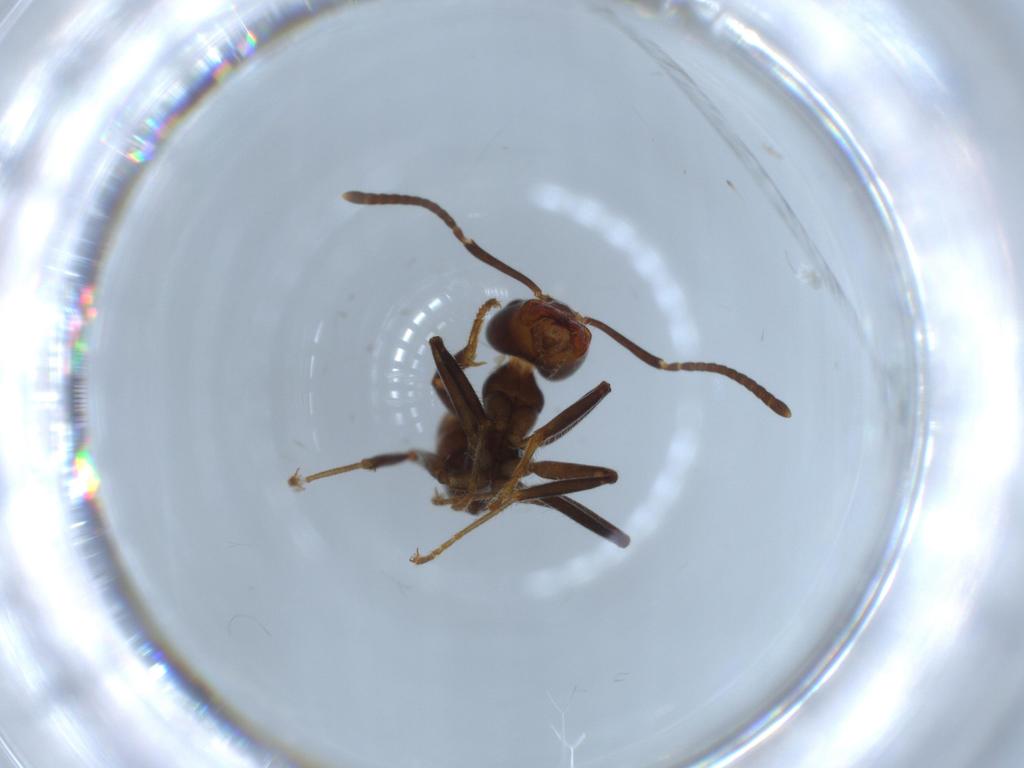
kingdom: Animalia
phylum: Arthropoda
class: Insecta
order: Hymenoptera
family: Formicidae
